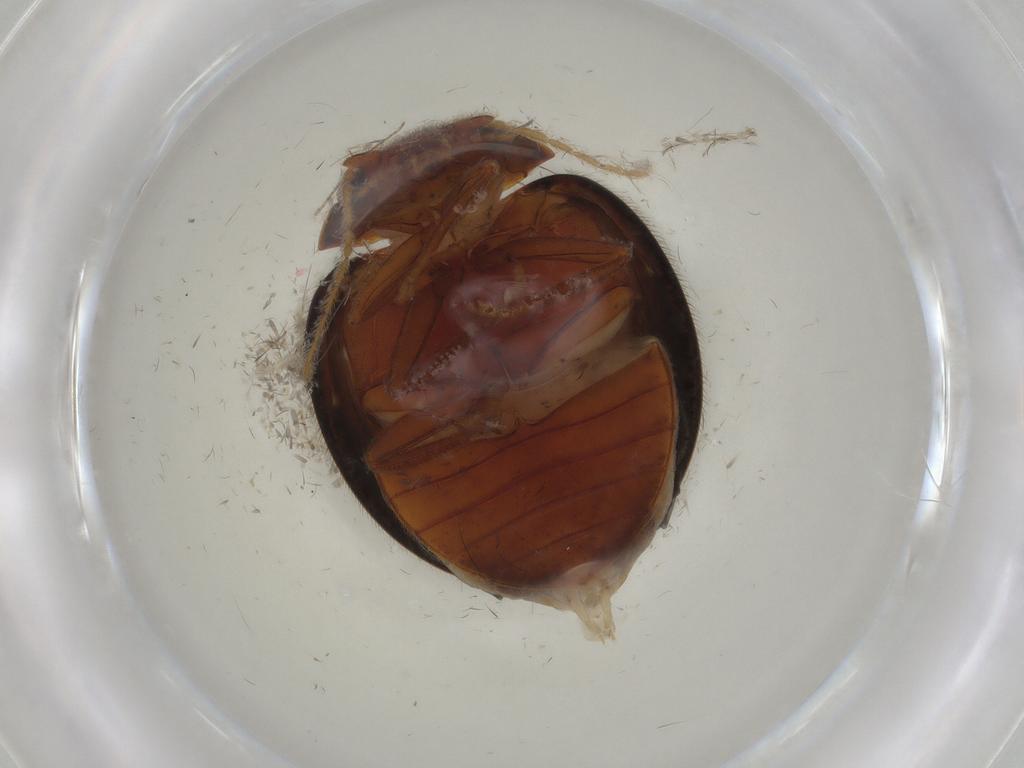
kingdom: Animalia
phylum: Arthropoda
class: Insecta
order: Coleoptera
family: Scirtidae
